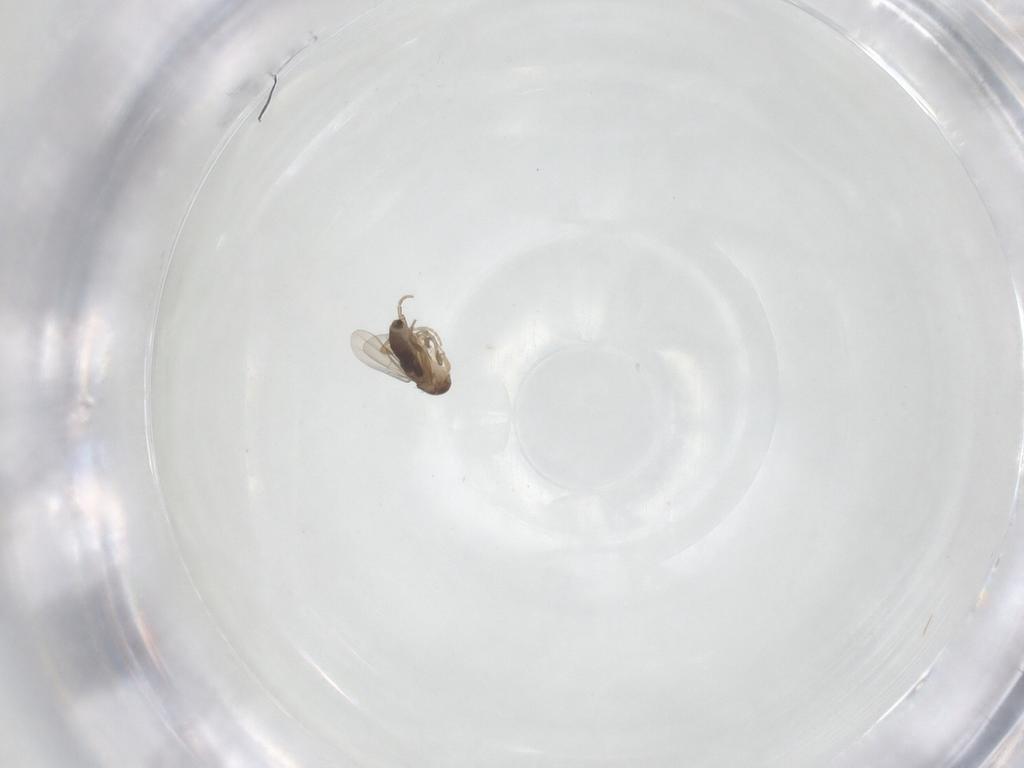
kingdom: Animalia
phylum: Arthropoda
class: Insecta
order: Diptera
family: Phoridae
